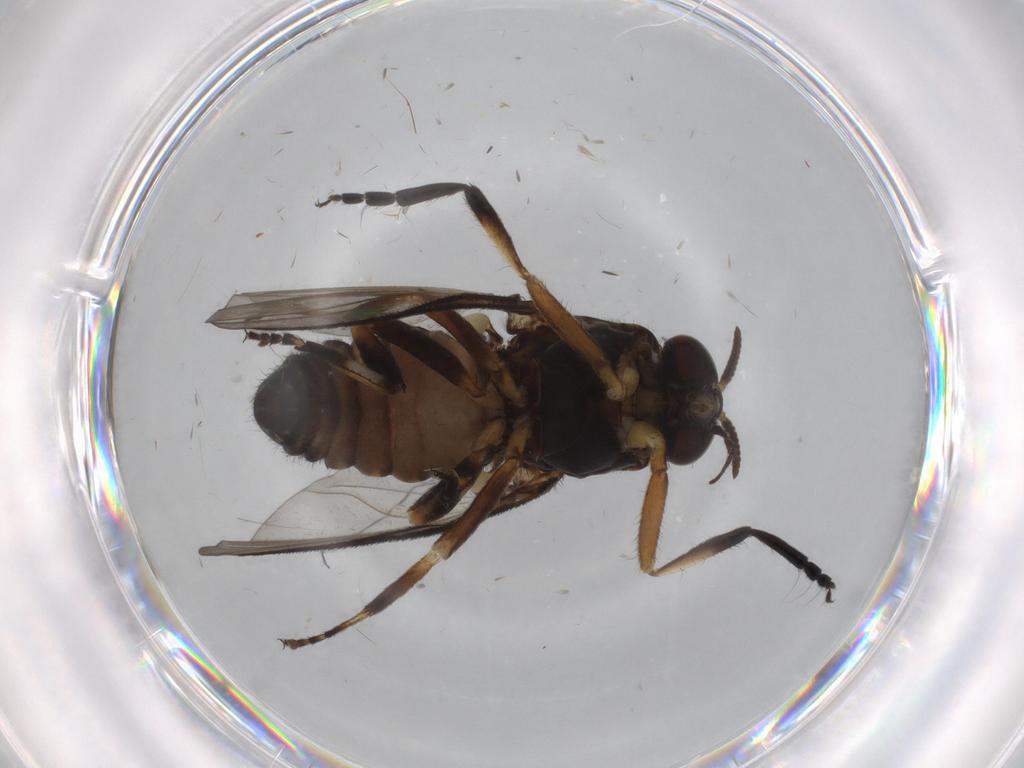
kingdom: Animalia
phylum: Arthropoda
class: Insecta
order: Diptera
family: Chironomidae
